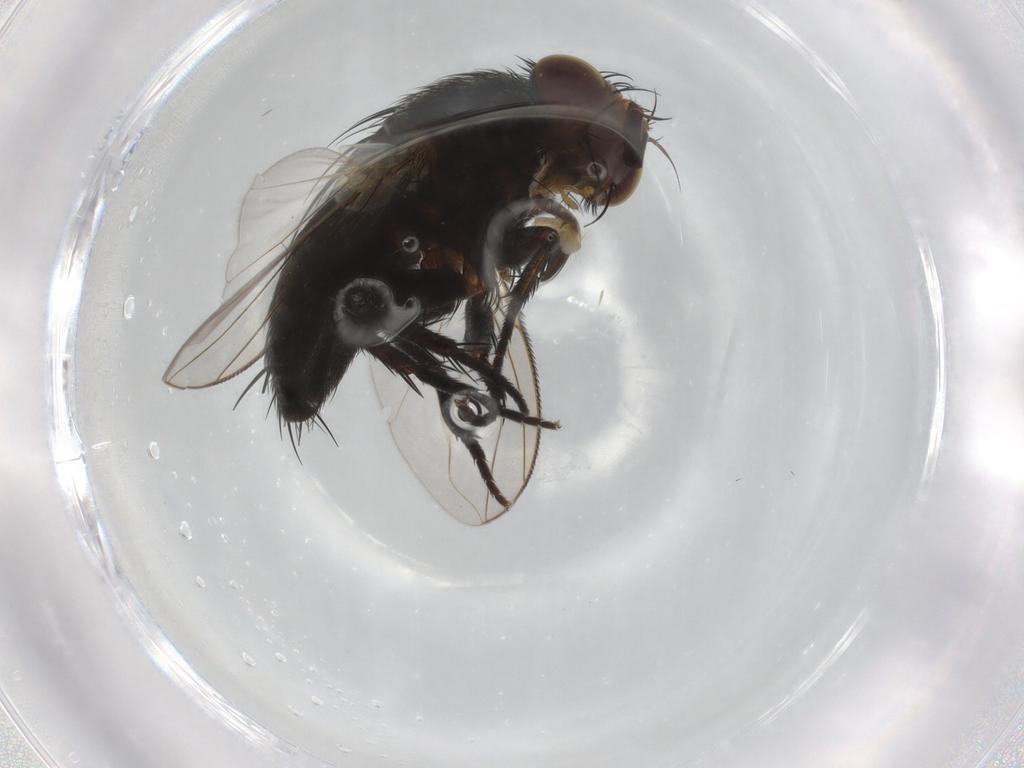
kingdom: Animalia
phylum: Arthropoda
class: Insecta
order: Diptera
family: Tachinidae
